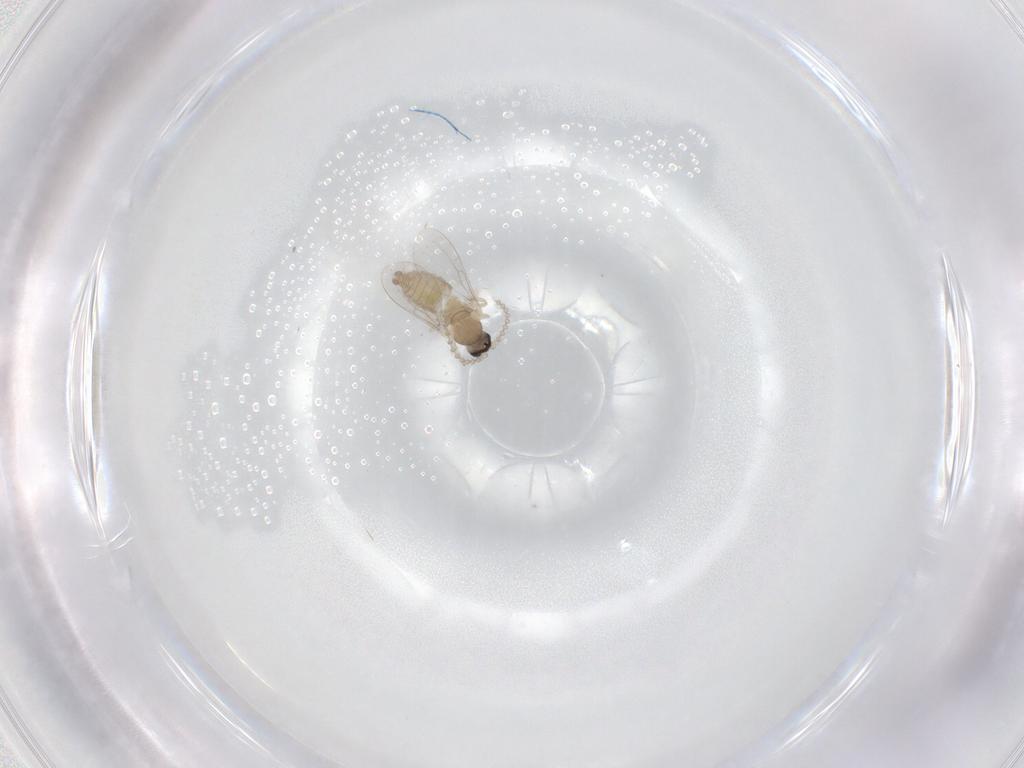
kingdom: Animalia
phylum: Arthropoda
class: Insecta
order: Diptera
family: Cecidomyiidae
